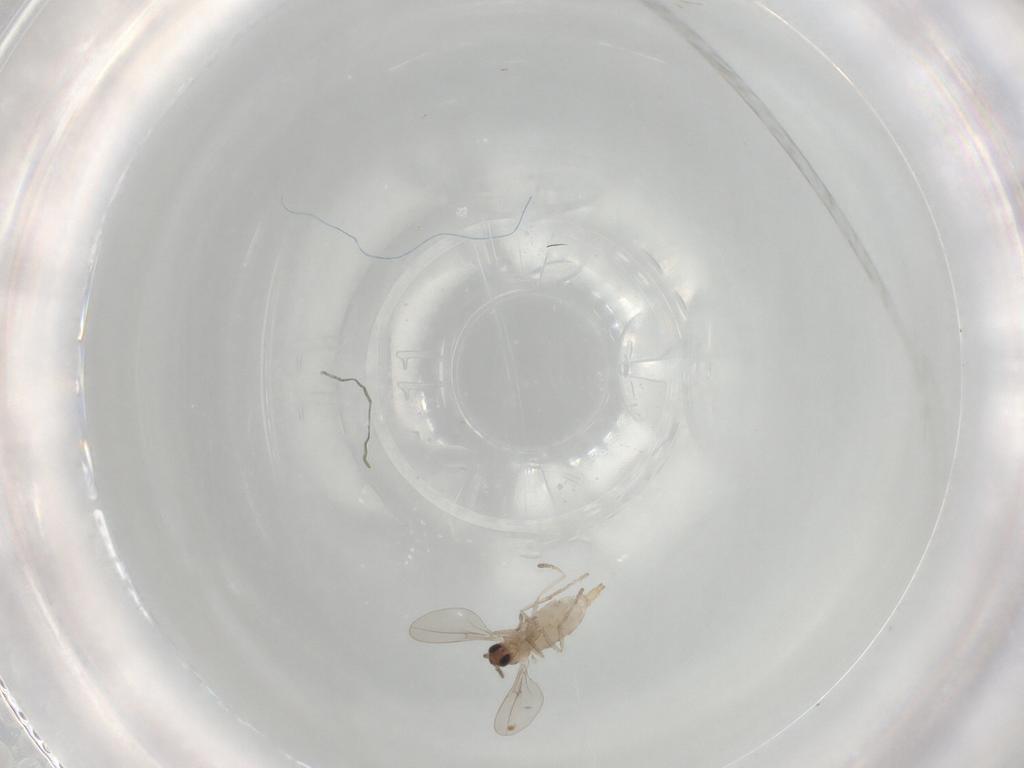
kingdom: Animalia
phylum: Arthropoda
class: Insecta
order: Diptera
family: Cecidomyiidae
